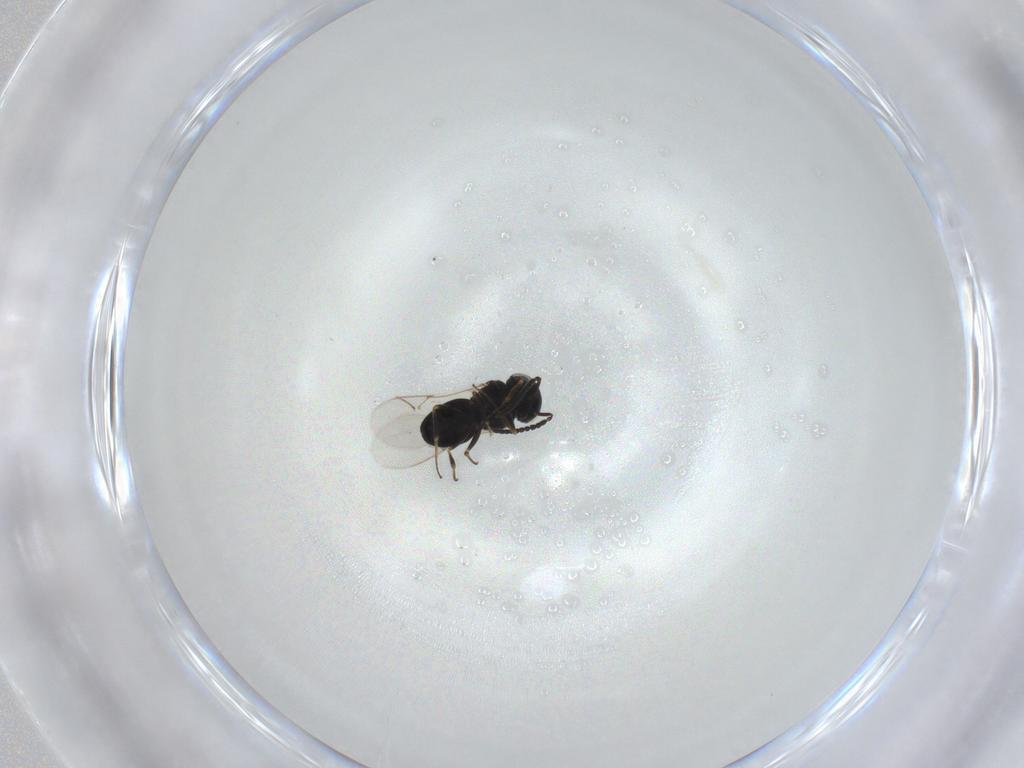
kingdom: Animalia
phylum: Arthropoda
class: Insecta
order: Hymenoptera
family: Scelionidae
